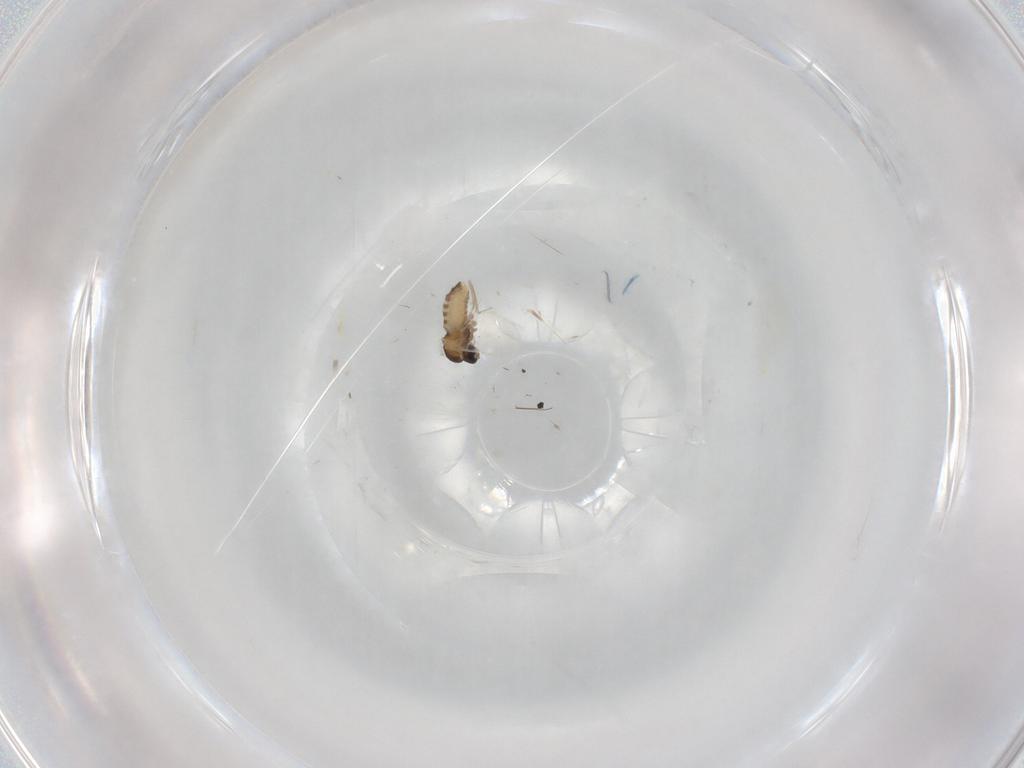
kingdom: Animalia
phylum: Arthropoda
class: Insecta
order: Diptera
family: Cecidomyiidae
